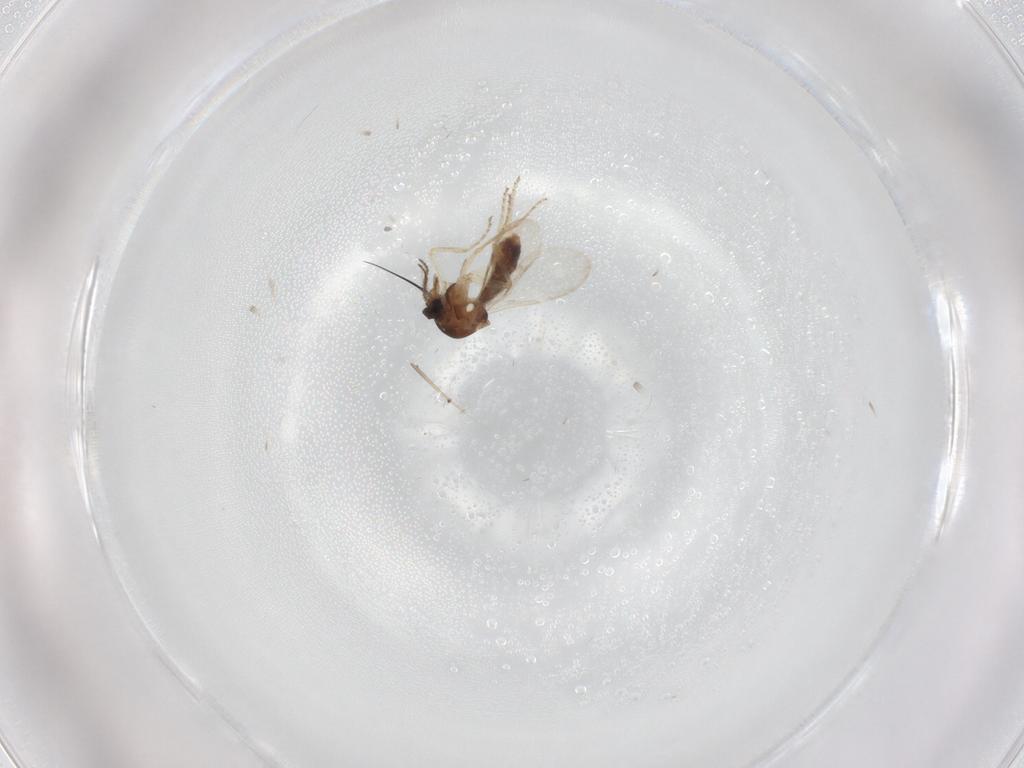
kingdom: Animalia
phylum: Arthropoda
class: Insecta
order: Diptera
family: Ceratopogonidae
